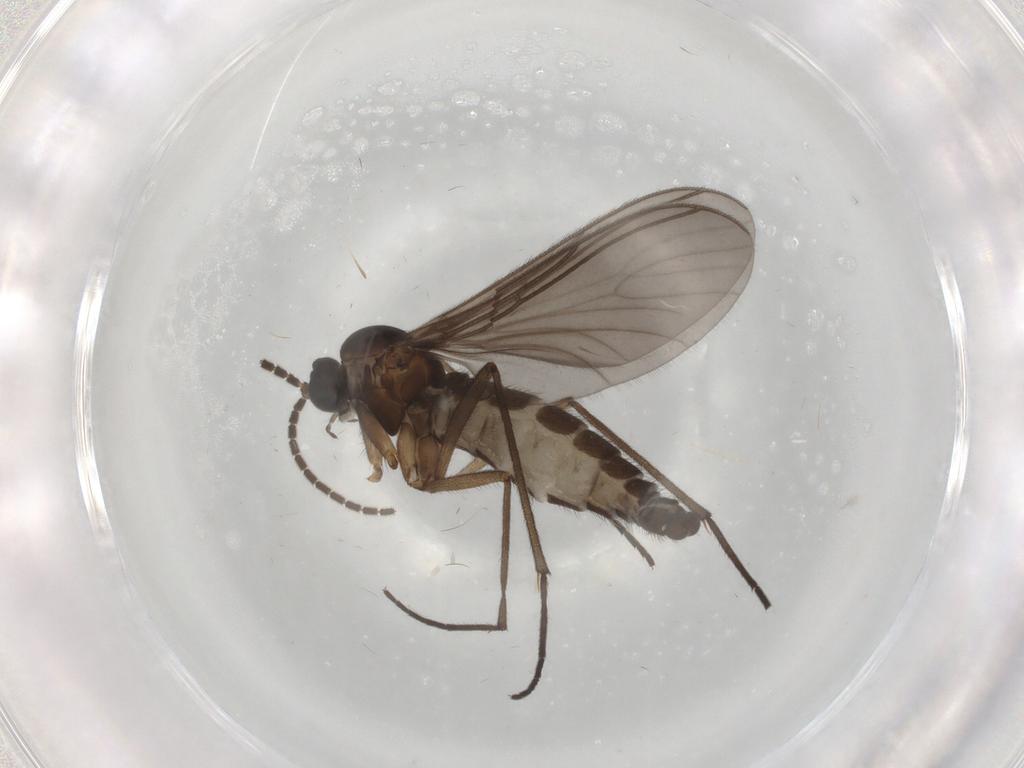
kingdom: Animalia
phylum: Arthropoda
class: Insecta
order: Diptera
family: Sciaridae
